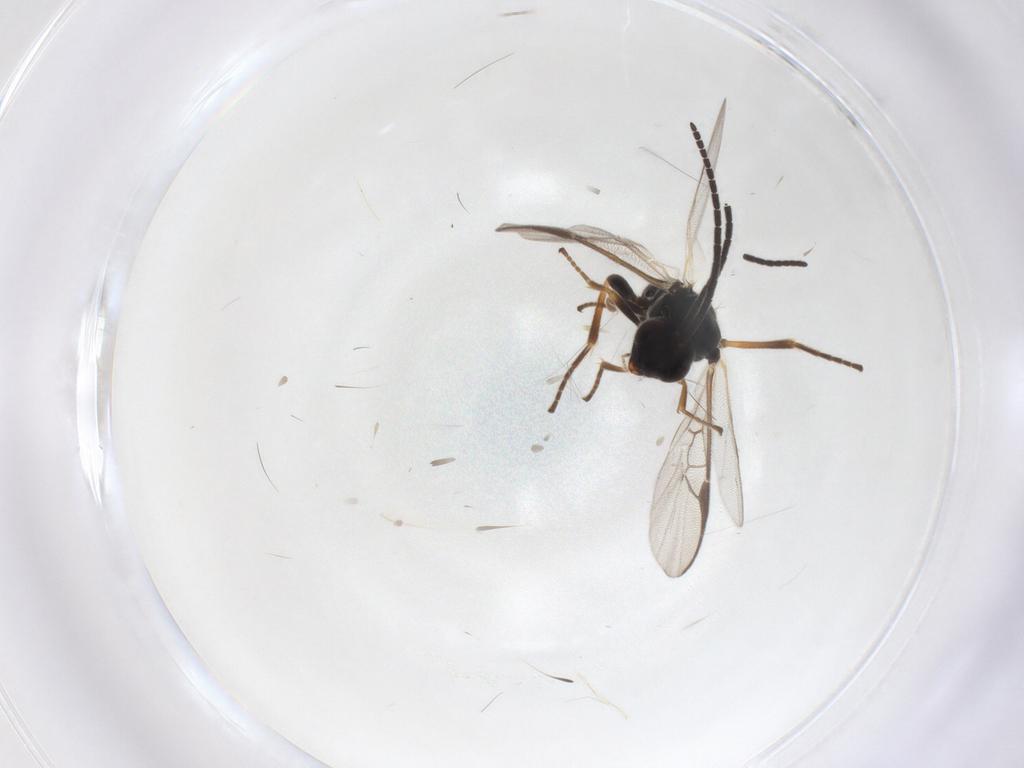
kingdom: Animalia
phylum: Arthropoda
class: Insecta
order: Hymenoptera
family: Braconidae
